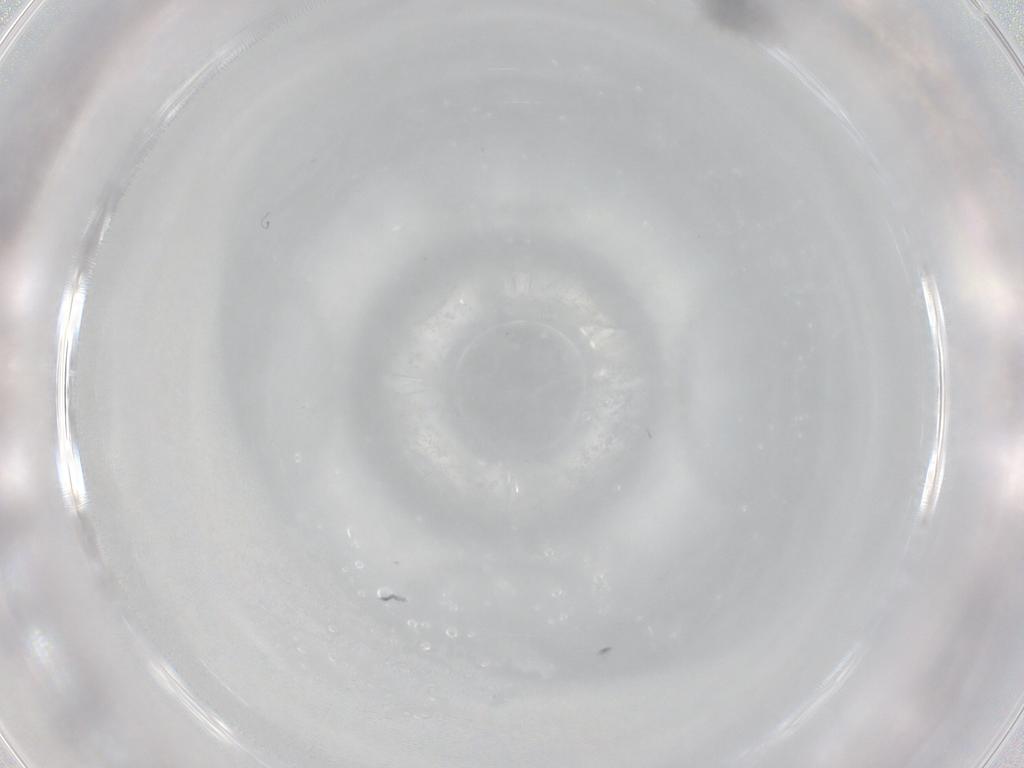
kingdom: Animalia
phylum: Arthropoda
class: Insecta
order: Hymenoptera
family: Scelionidae
